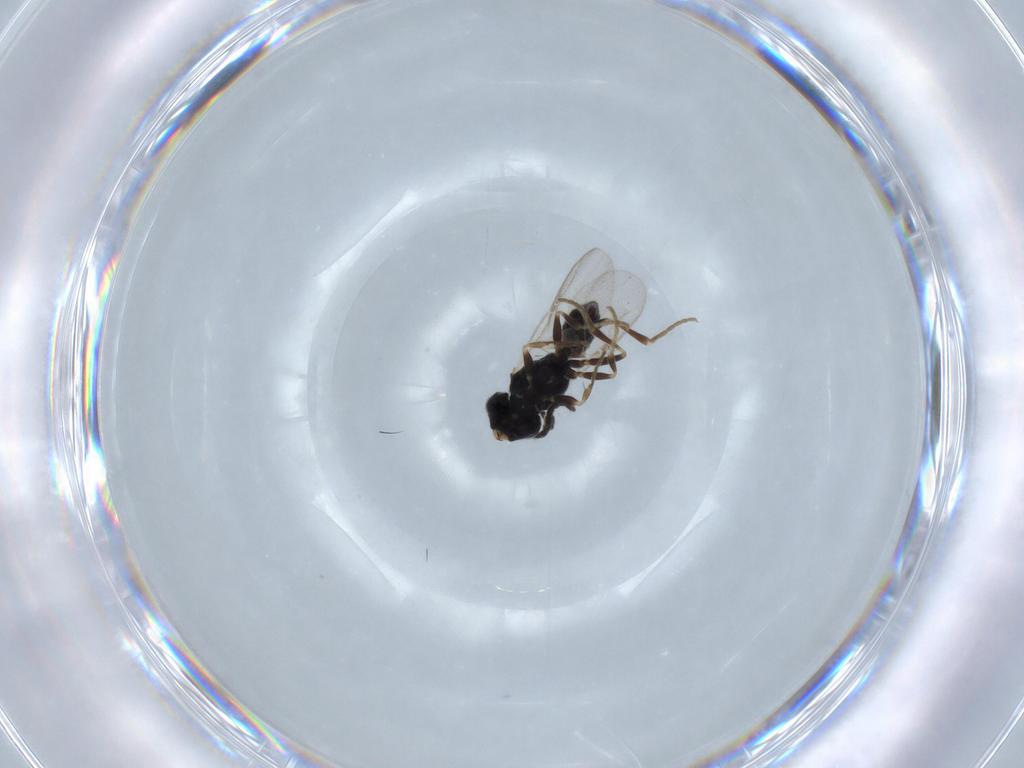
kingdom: Animalia
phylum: Arthropoda
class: Insecta
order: Hymenoptera
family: Dryinidae
